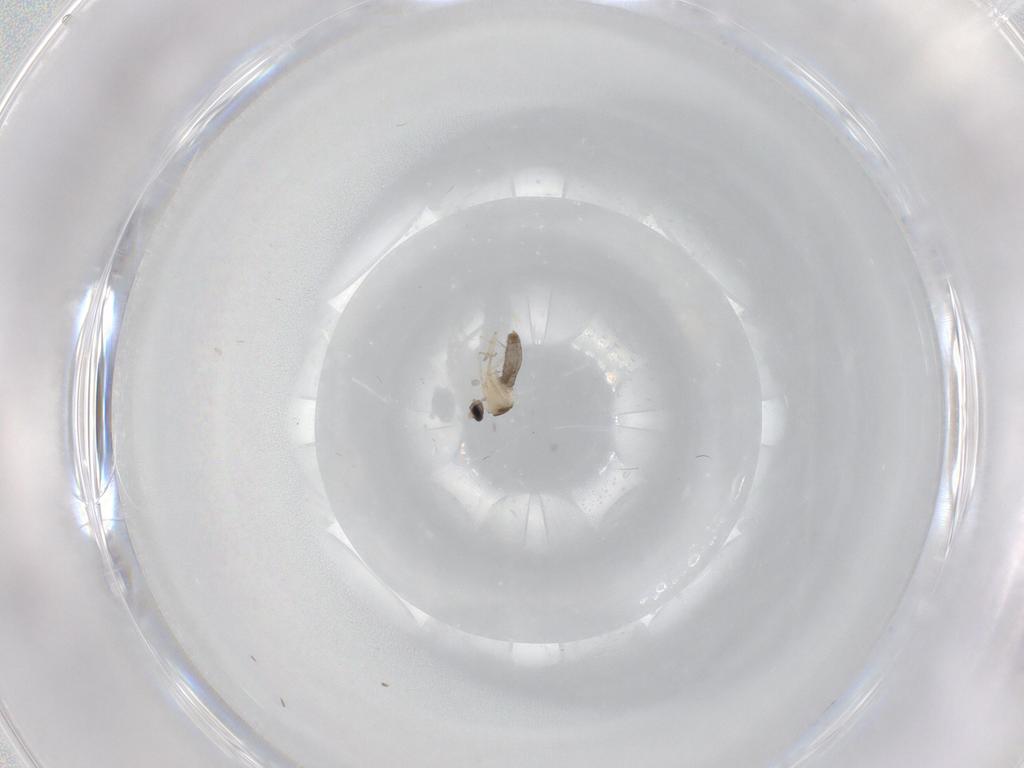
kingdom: Animalia
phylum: Arthropoda
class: Insecta
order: Diptera
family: Cecidomyiidae
